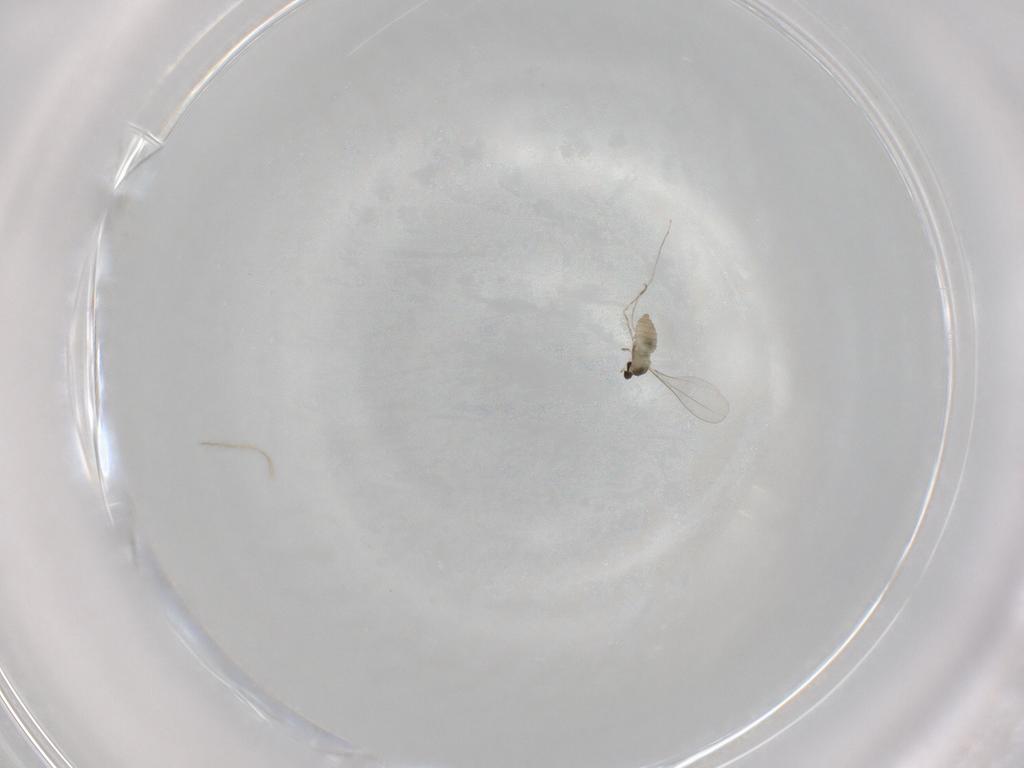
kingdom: Animalia
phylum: Arthropoda
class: Insecta
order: Diptera
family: Cecidomyiidae
